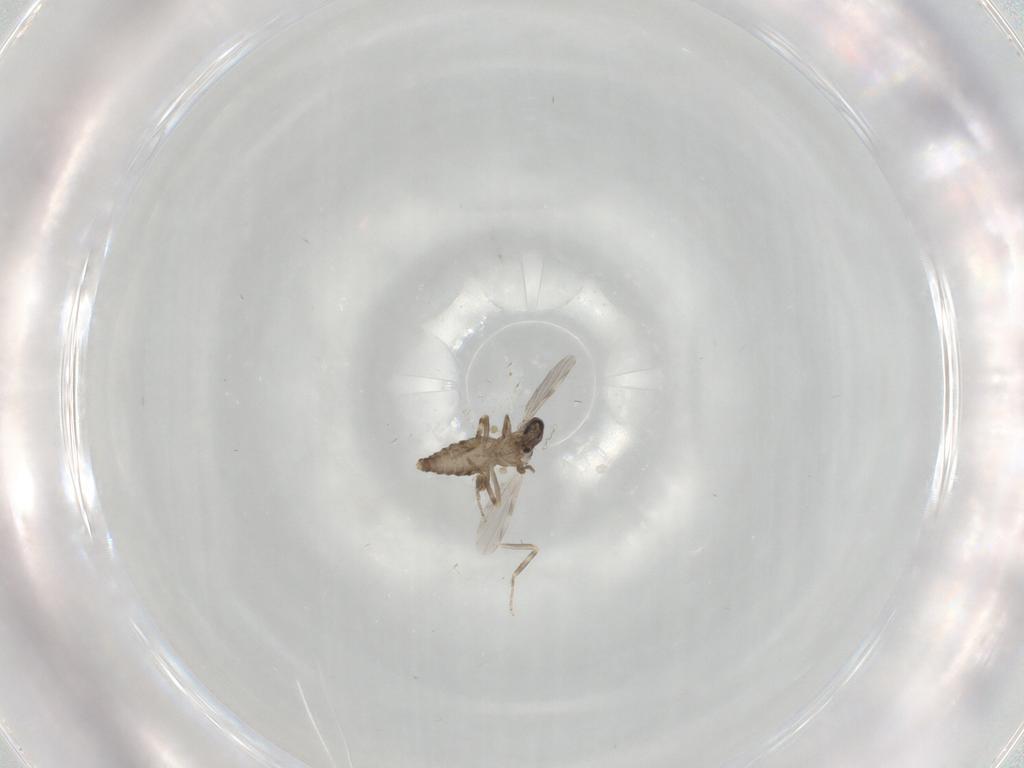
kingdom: Animalia
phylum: Arthropoda
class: Insecta
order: Diptera
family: Ceratopogonidae
